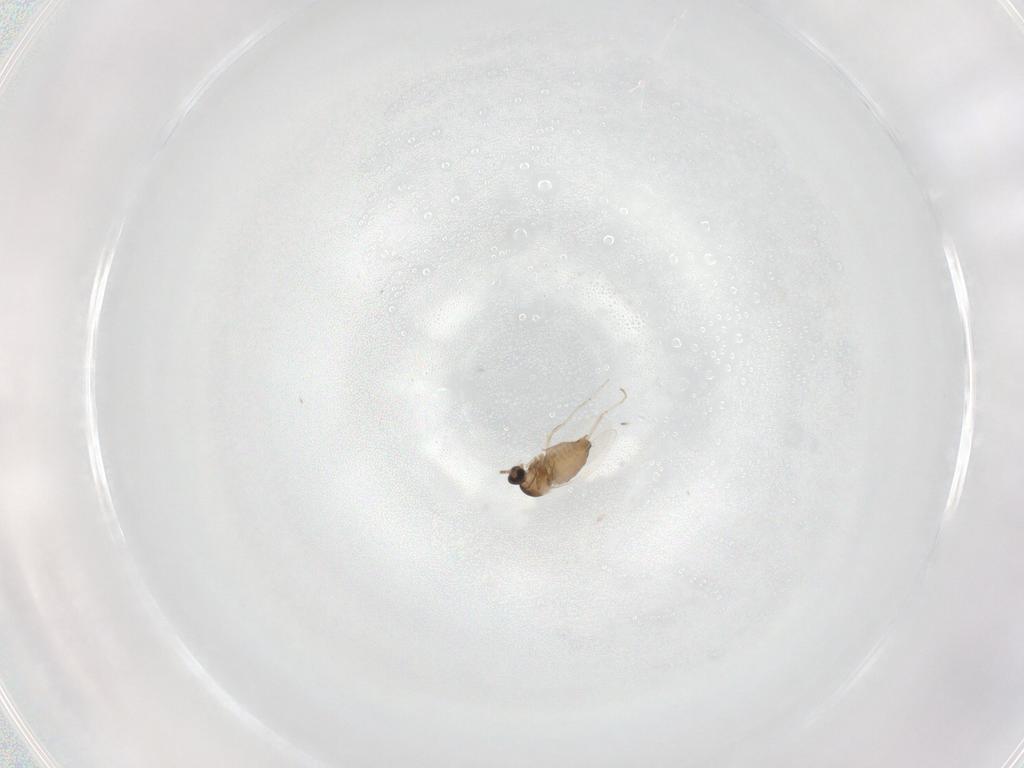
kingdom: Animalia
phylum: Arthropoda
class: Insecta
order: Diptera
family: Cecidomyiidae
